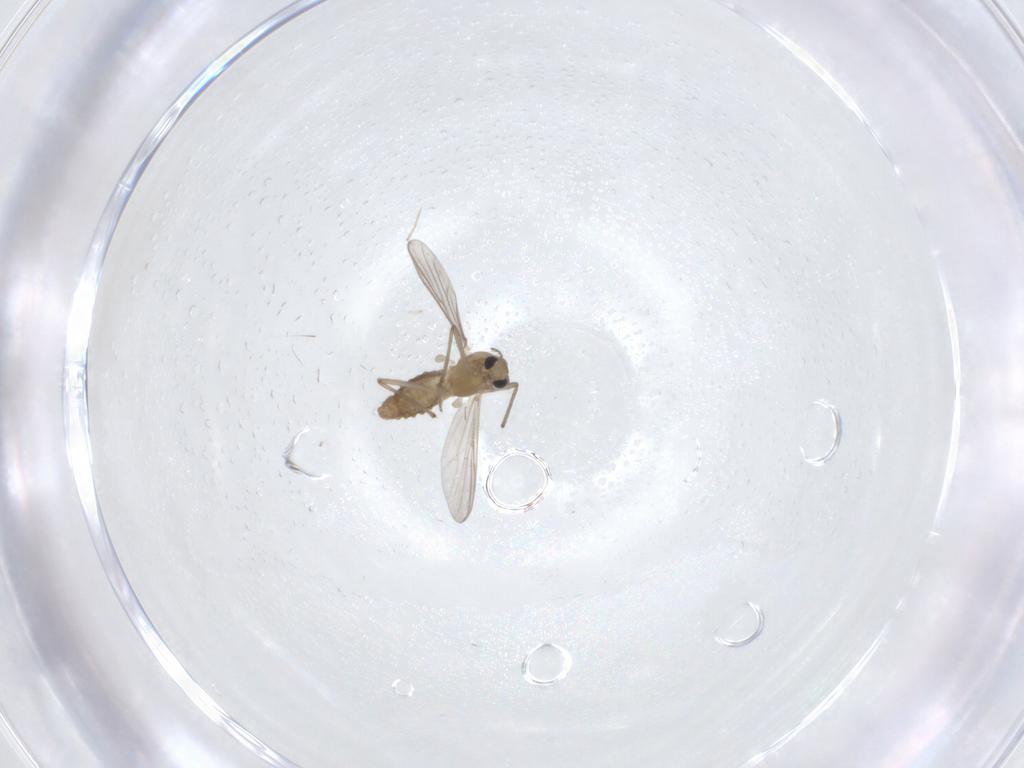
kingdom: Animalia
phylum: Arthropoda
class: Insecta
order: Diptera
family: Chironomidae
